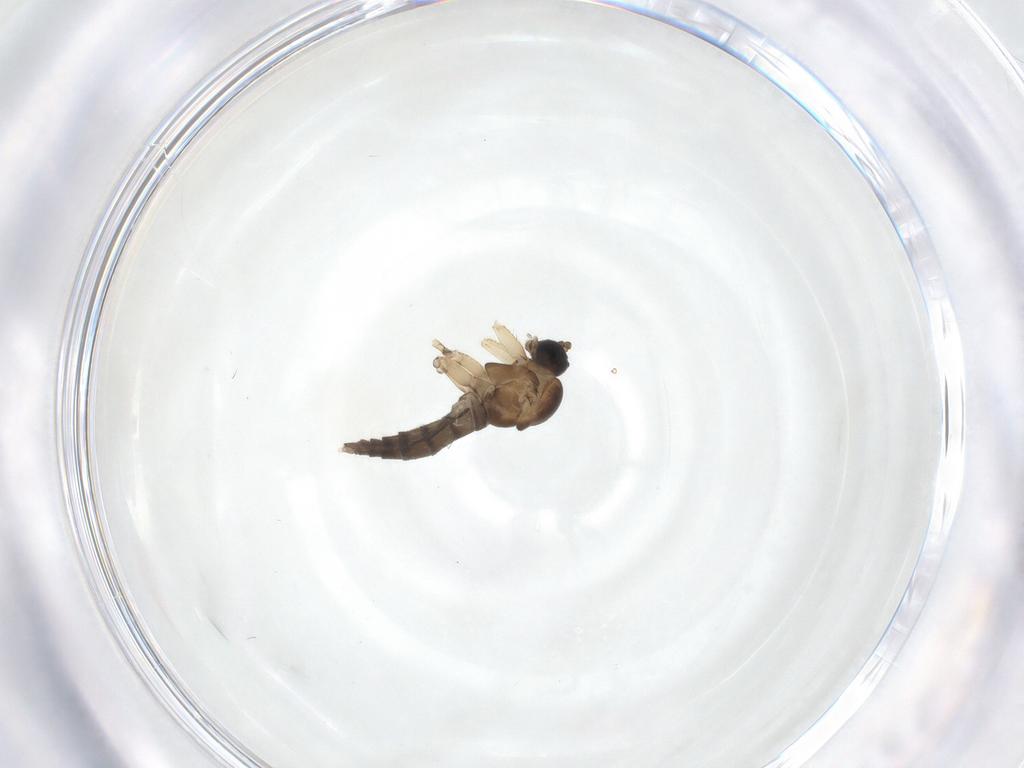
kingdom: Animalia
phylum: Arthropoda
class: Insecta
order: Diptera
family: Sciaridae
